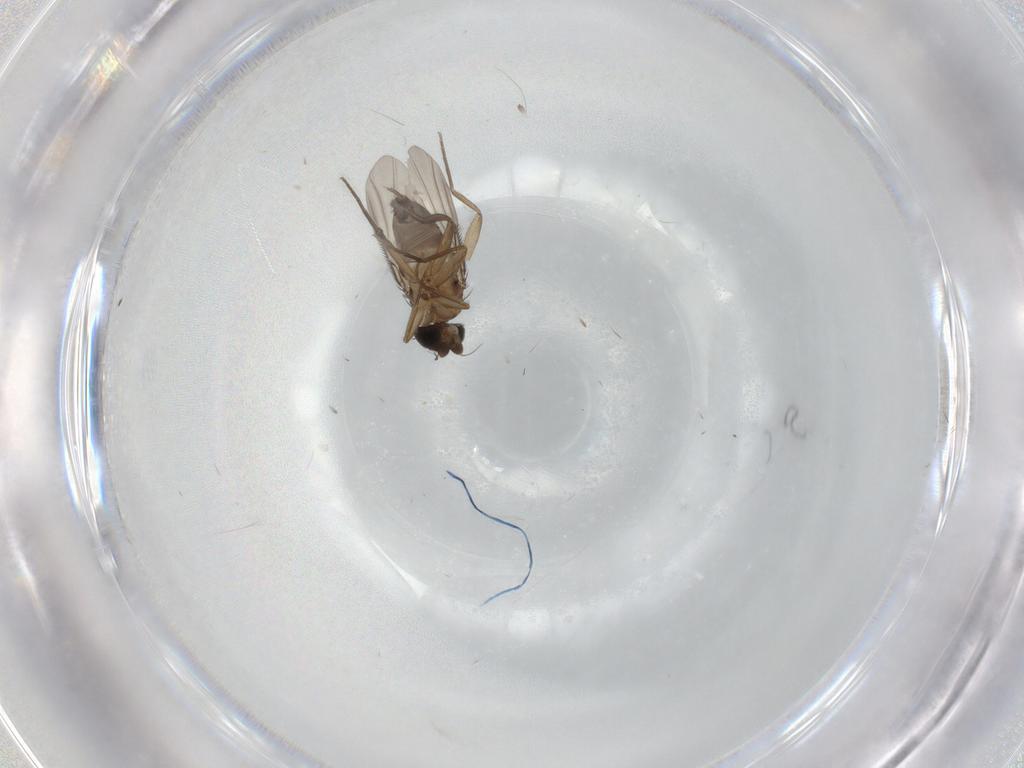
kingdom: Animalia
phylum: Arthropoda
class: Insecta
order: Diptera
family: Phoridae
